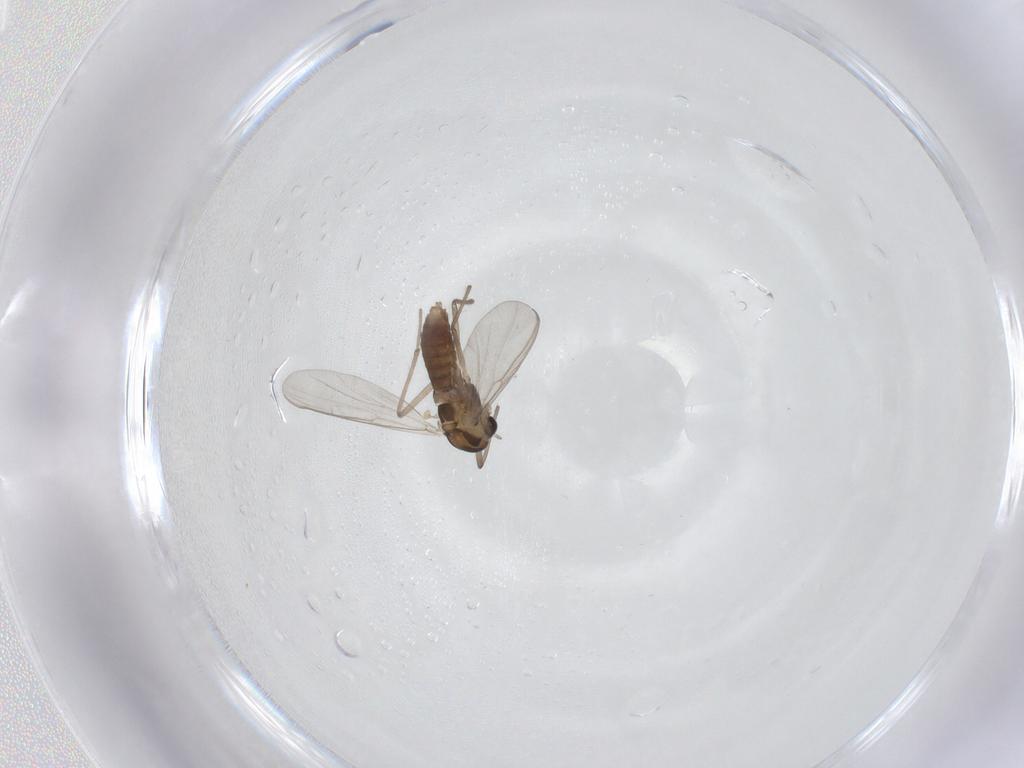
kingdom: Animalia
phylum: Arthropoda
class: Insecta
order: Diptera
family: Chironomidae
